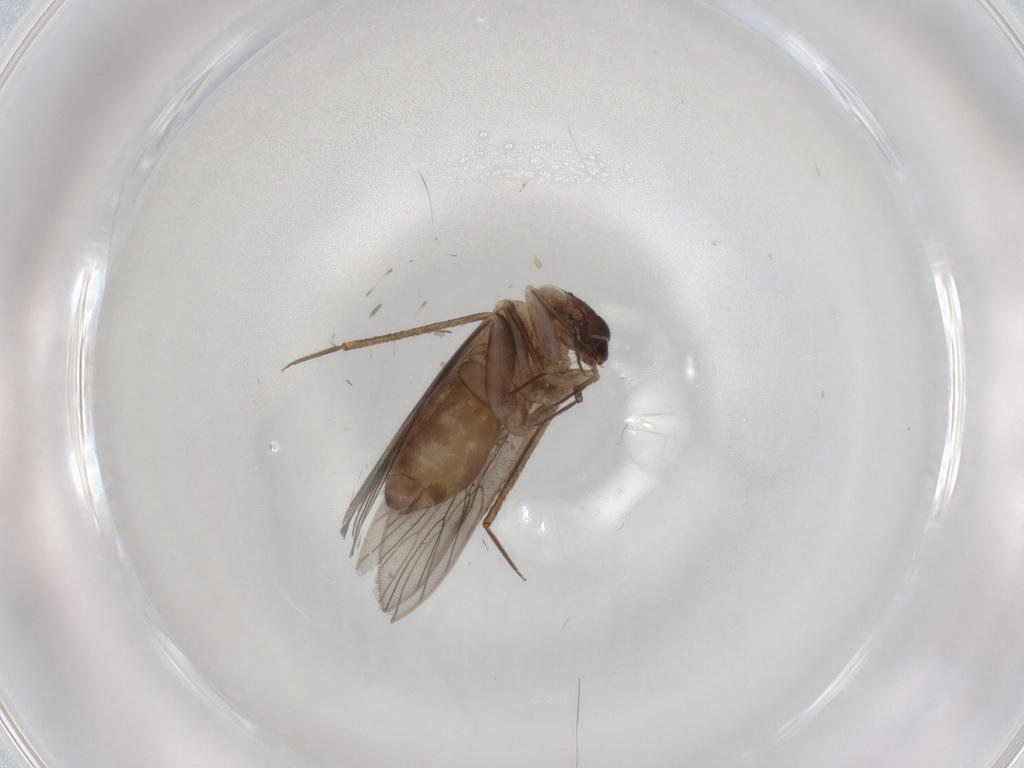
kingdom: Animalia
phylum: Arthropoda
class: Insecta
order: Psocodea
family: Lepidopsocidae
